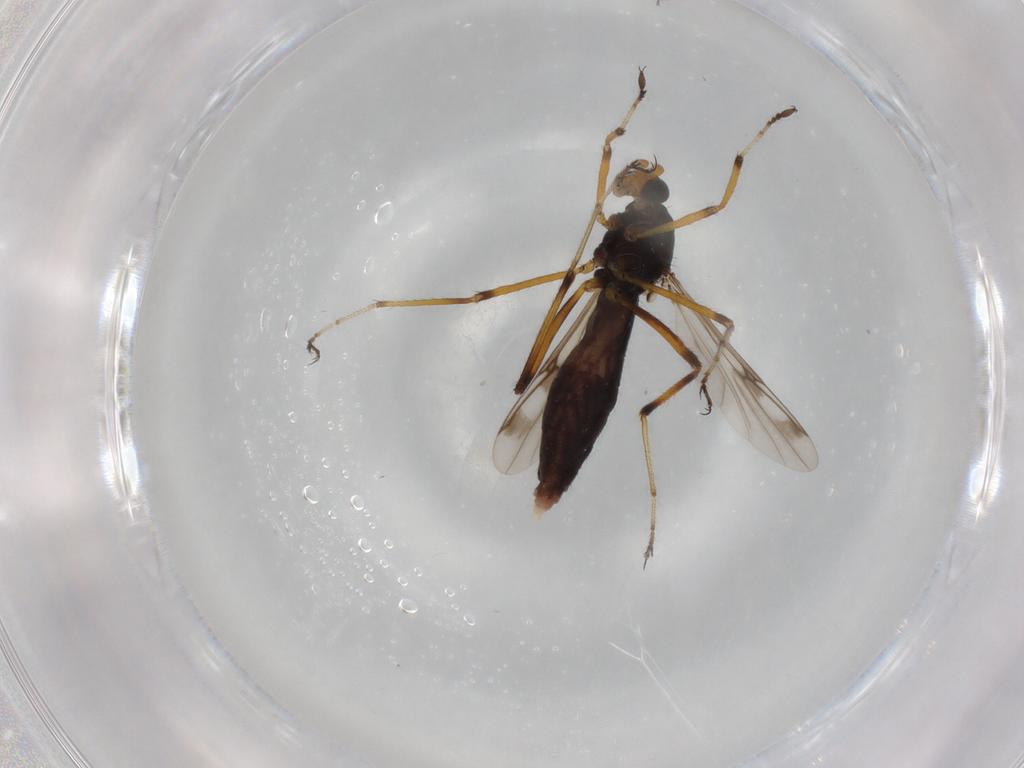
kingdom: Animalia
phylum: Arthropoda
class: Insecta
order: Diptera
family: Ceratopogonidae
